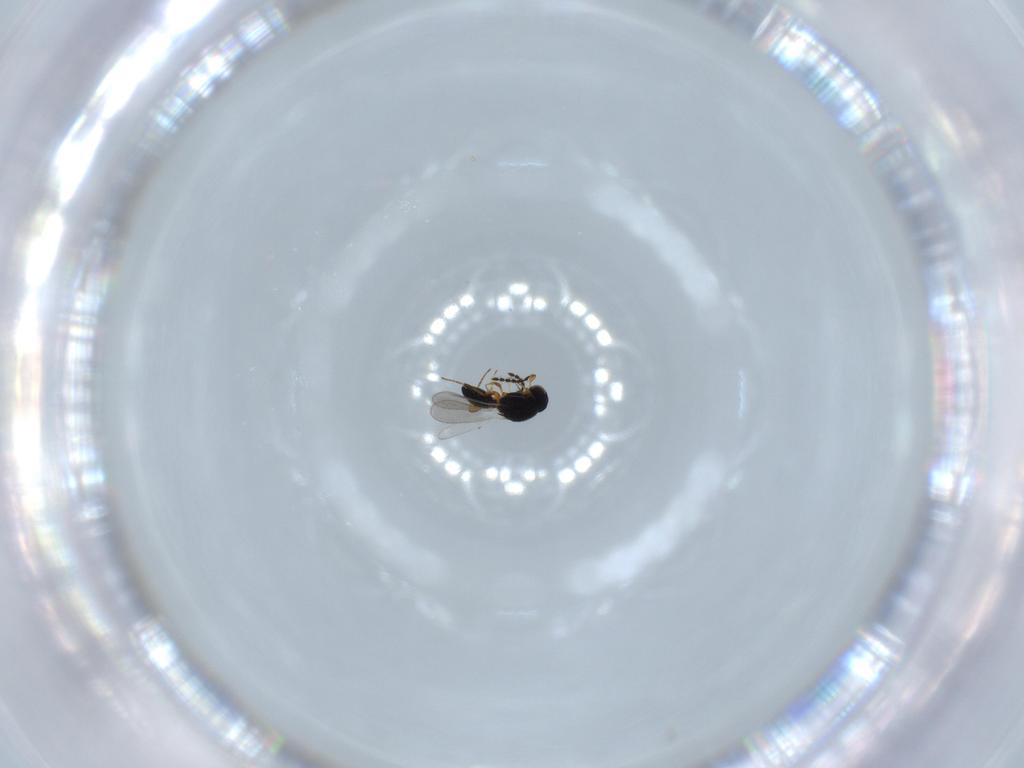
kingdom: Animalia
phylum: Arthropoda
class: Insecta
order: Hymenoptera
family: Platygastridae
